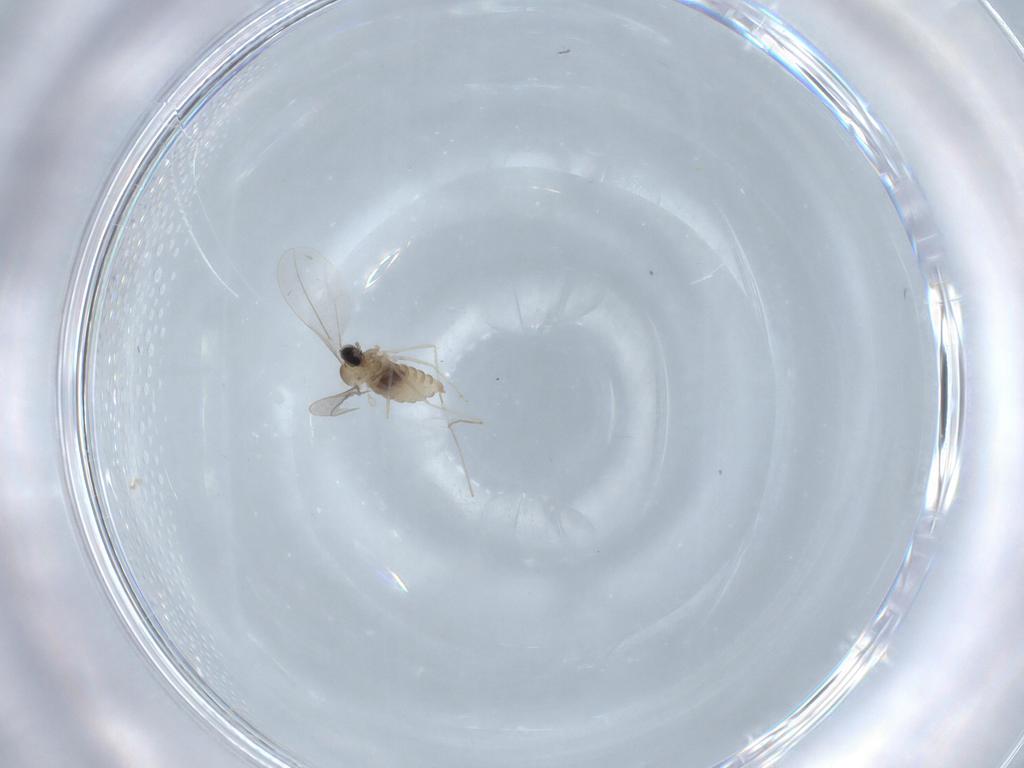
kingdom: Animalia
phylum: Arthropoda
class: Insecta
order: Diptera
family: Cecidomyiidae
